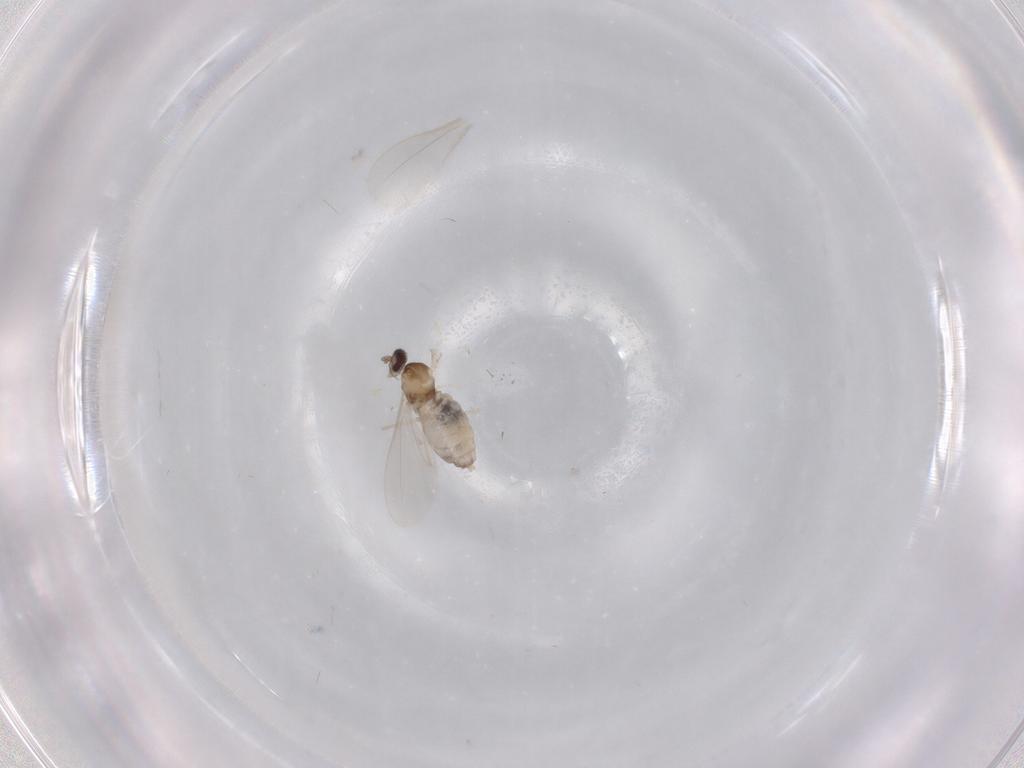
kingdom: Animalia
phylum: Arthropoda
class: Insecta
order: Diptera
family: Cecidomyiidae
